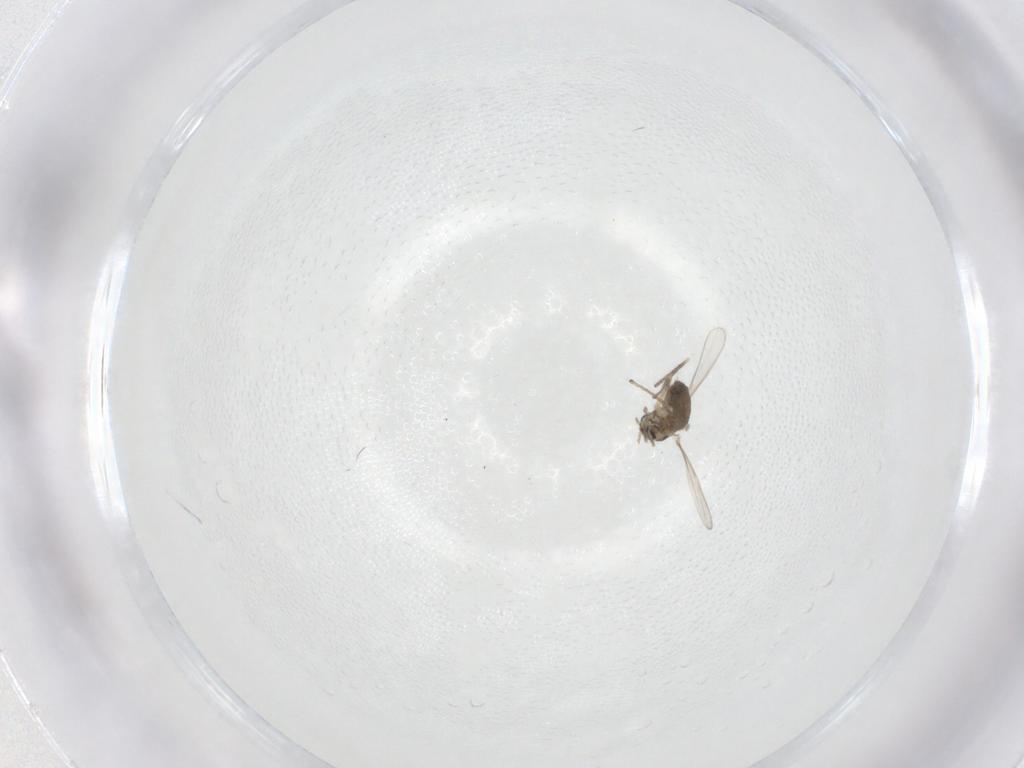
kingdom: Animalia
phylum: Arthropoda
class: Insecta
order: Diptera
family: Chironomidae
